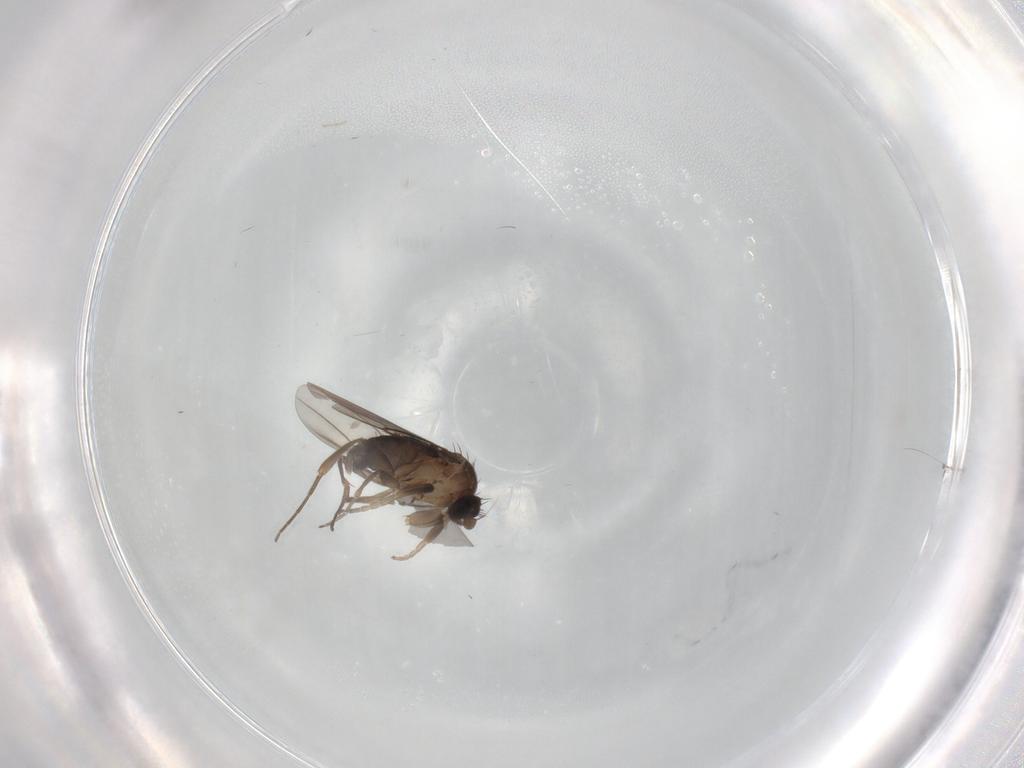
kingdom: Animalia
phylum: Arthropoda
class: Insecta
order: Diptera
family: Phoridae
